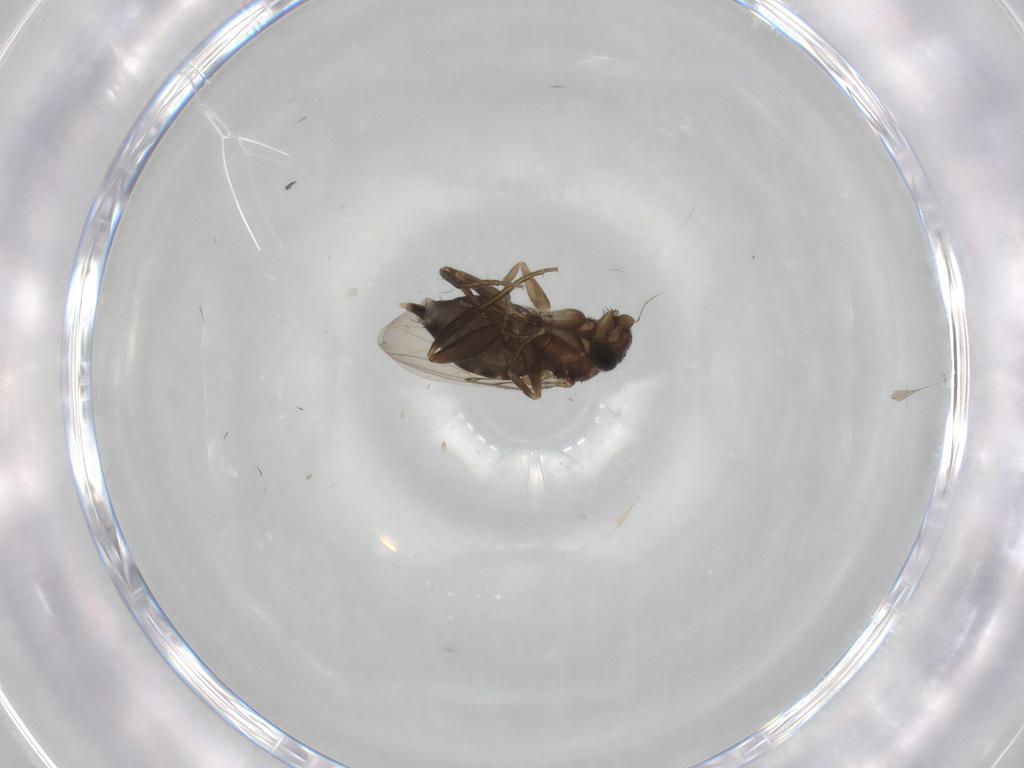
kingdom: Animalia
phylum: Arthropoda
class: Insecta
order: Diptera
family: Phoridae
